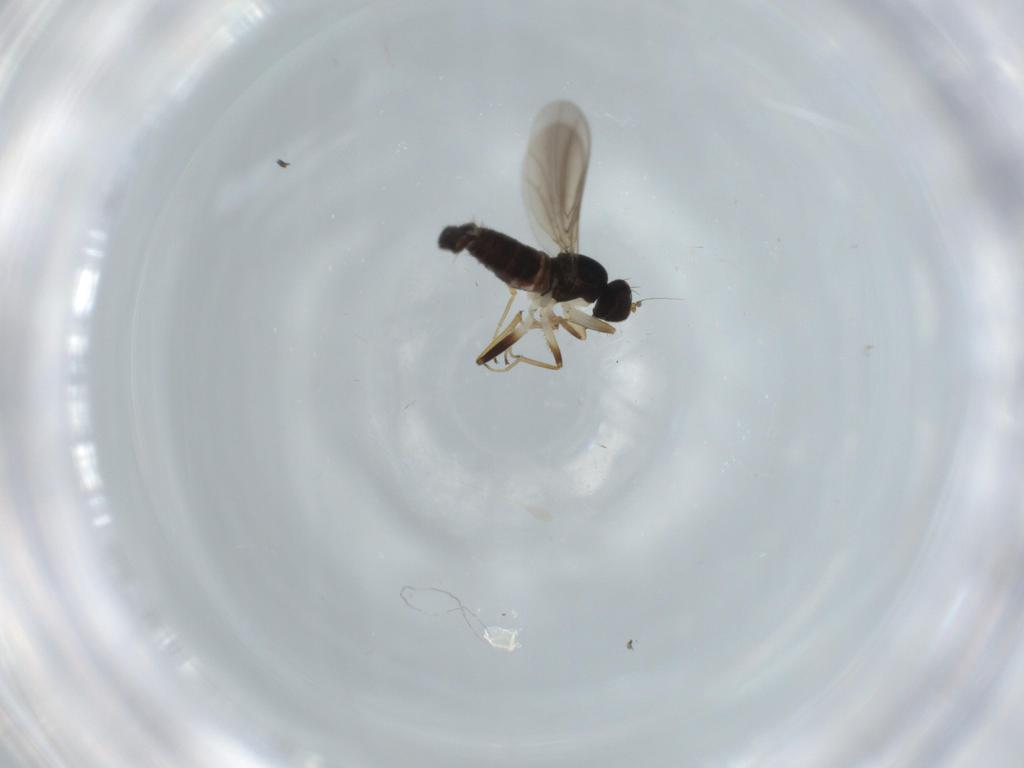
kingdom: Animalia
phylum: Arthropoda
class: Insecta
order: Diptera
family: Hybotidae
